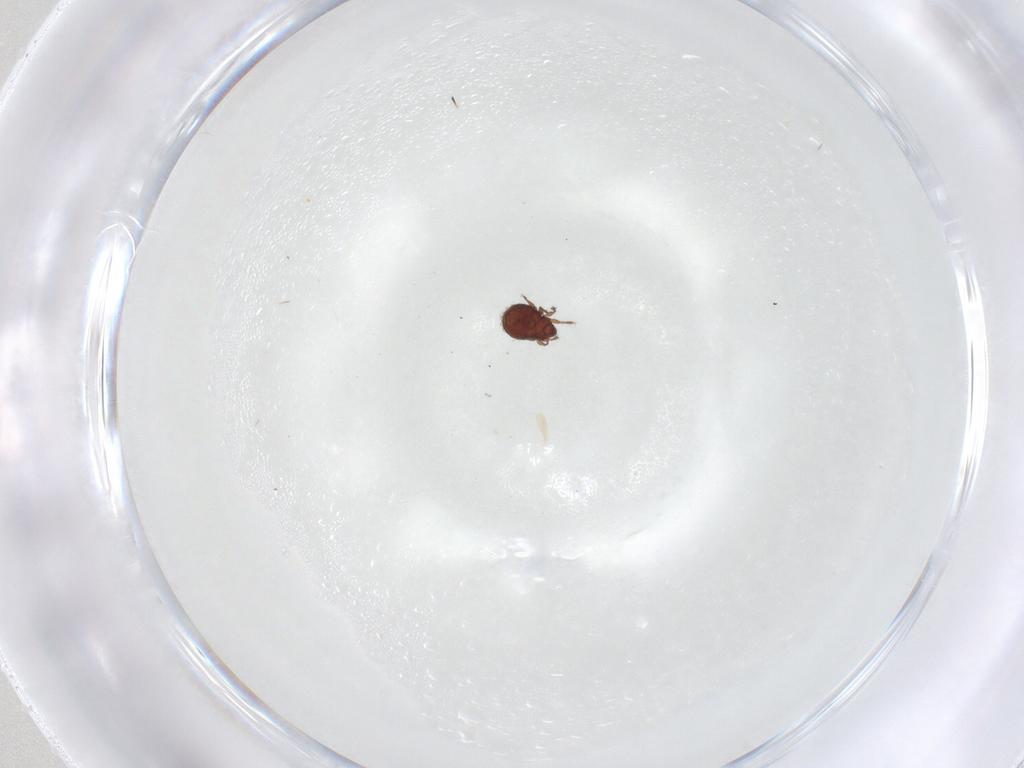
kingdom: Animalia
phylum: Arthropoda
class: Arachnida
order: Sarcoptiformes
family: Scheloribatidae
